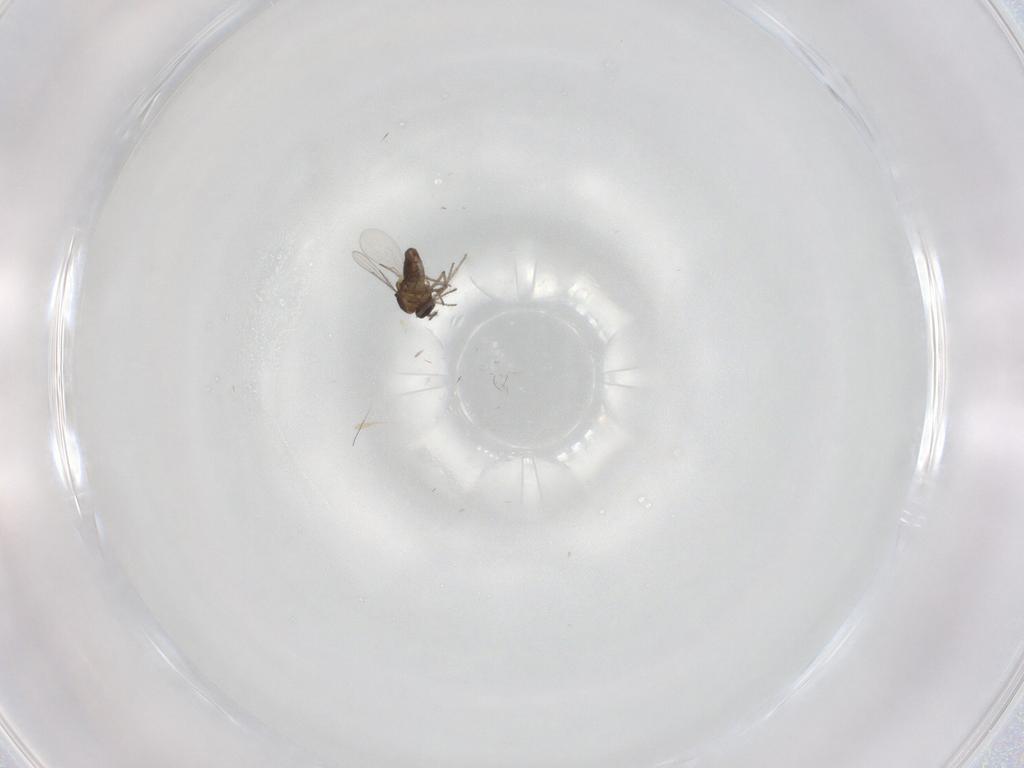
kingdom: Animalia
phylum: Arthropoda
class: Insecta
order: Diptera
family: Ceratopogonidae
